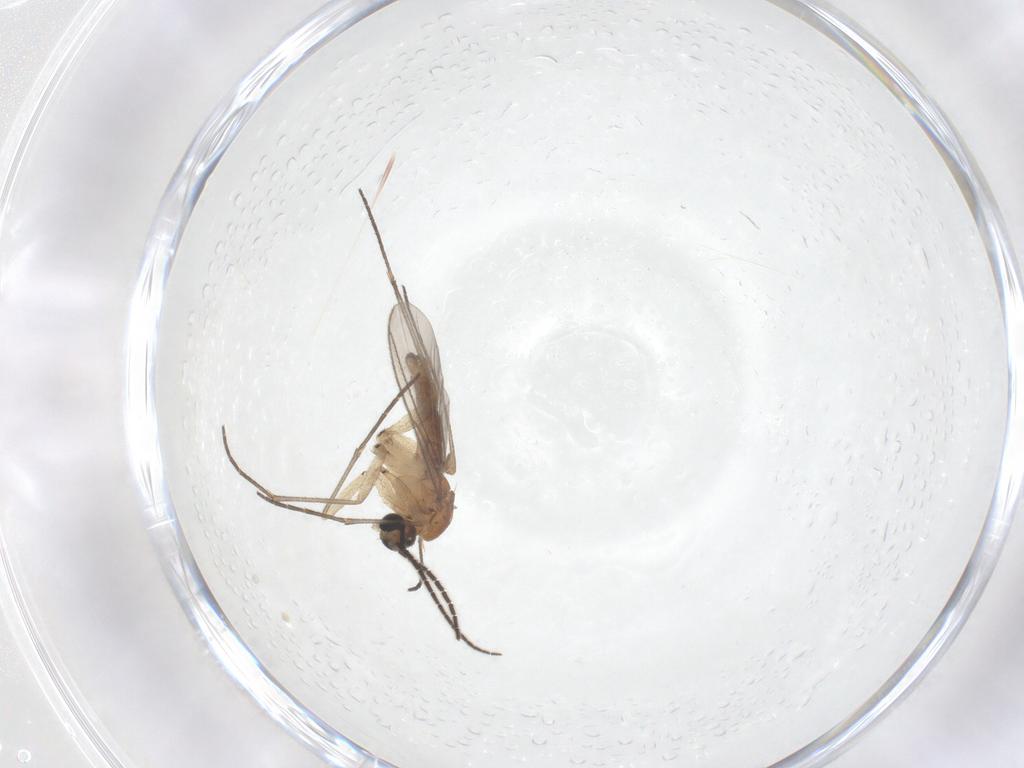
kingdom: Animalia
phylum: Arthropoda
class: Insecta
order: Diptera
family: Sciaridae
